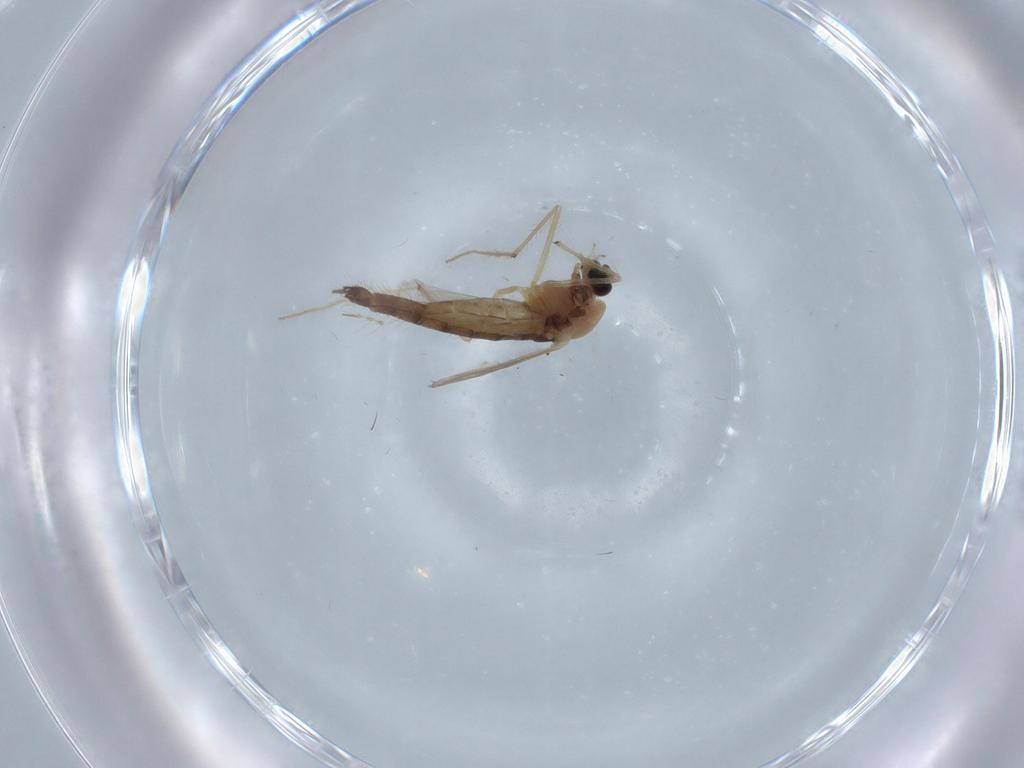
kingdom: Animalia
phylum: Arthropoda
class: Insecta
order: Diptera
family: Chironomidae
